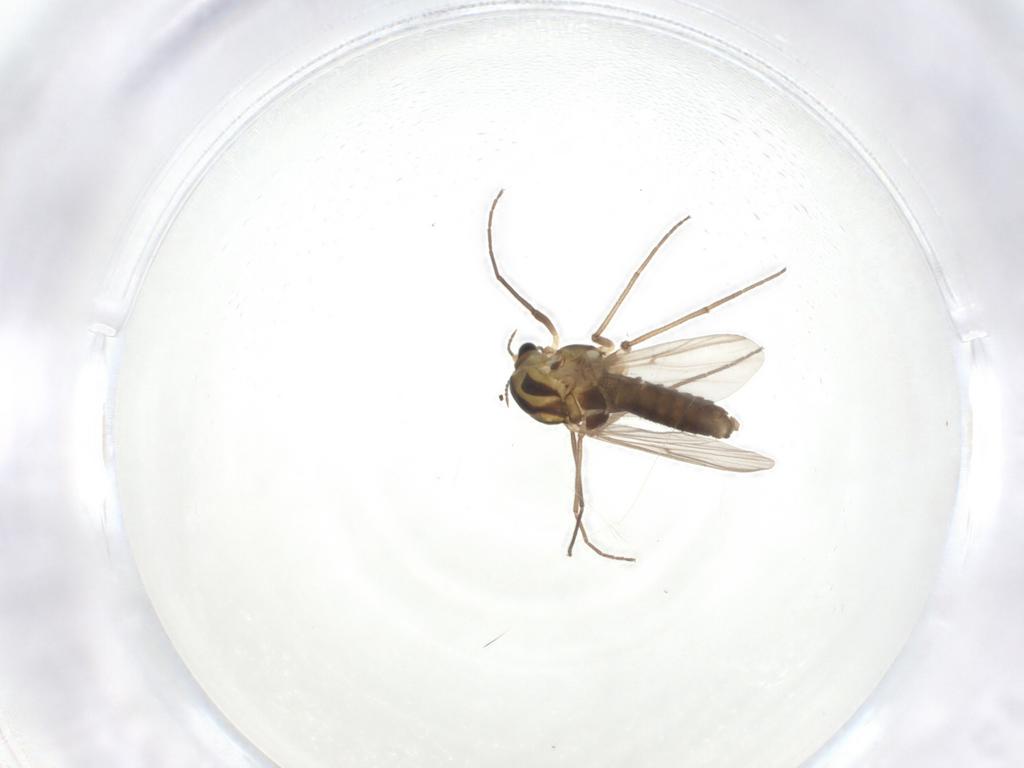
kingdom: Animalia
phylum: Arthropoda
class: Insecta
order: Diptera
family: Chironomidae
